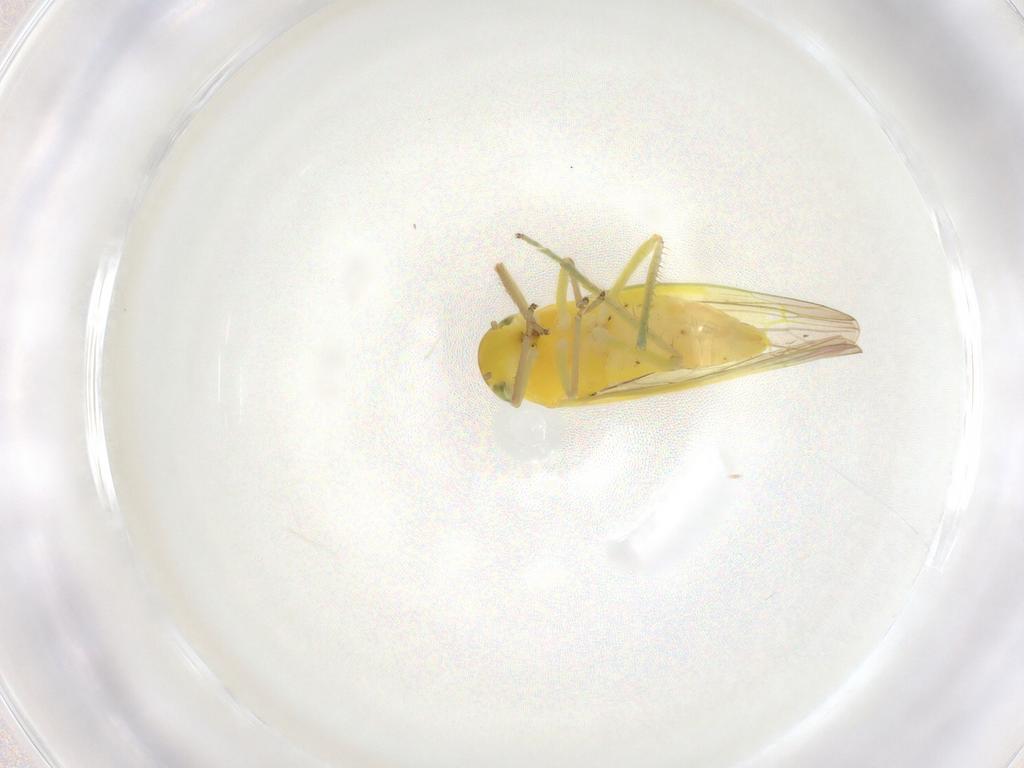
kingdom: Animalia
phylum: Arthropoda
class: Insecta
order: Hemiptera
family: Cicadellidae
